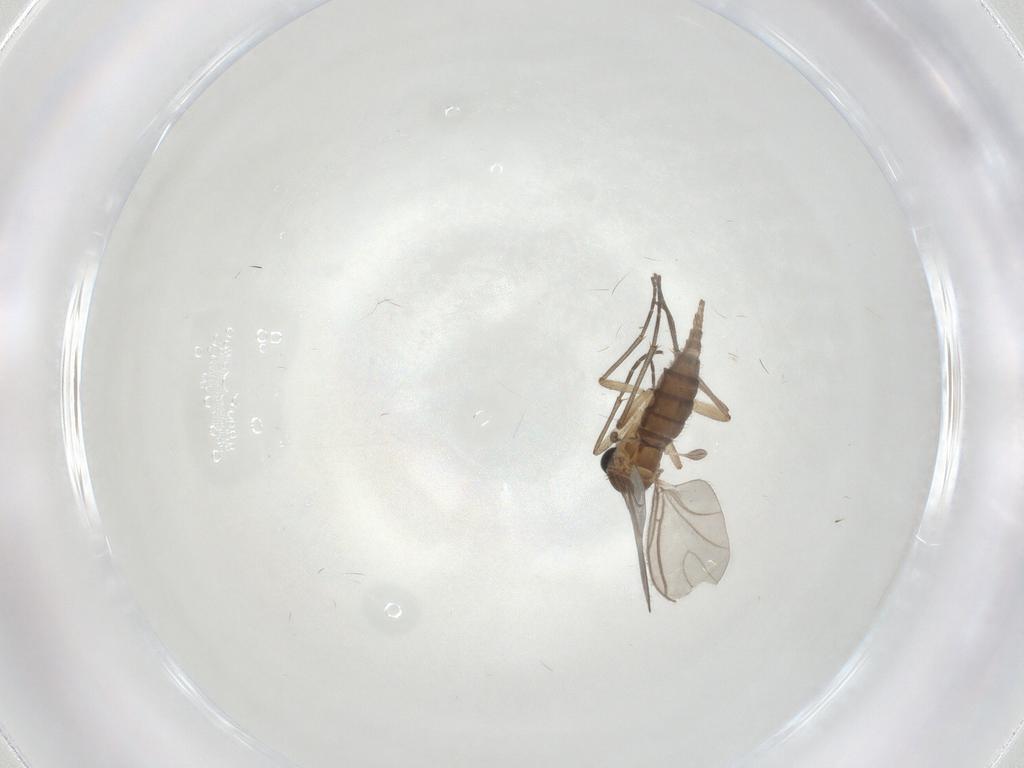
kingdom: Animalia
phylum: Arthropoda
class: Insecta
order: Diptera
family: Sciaridae
